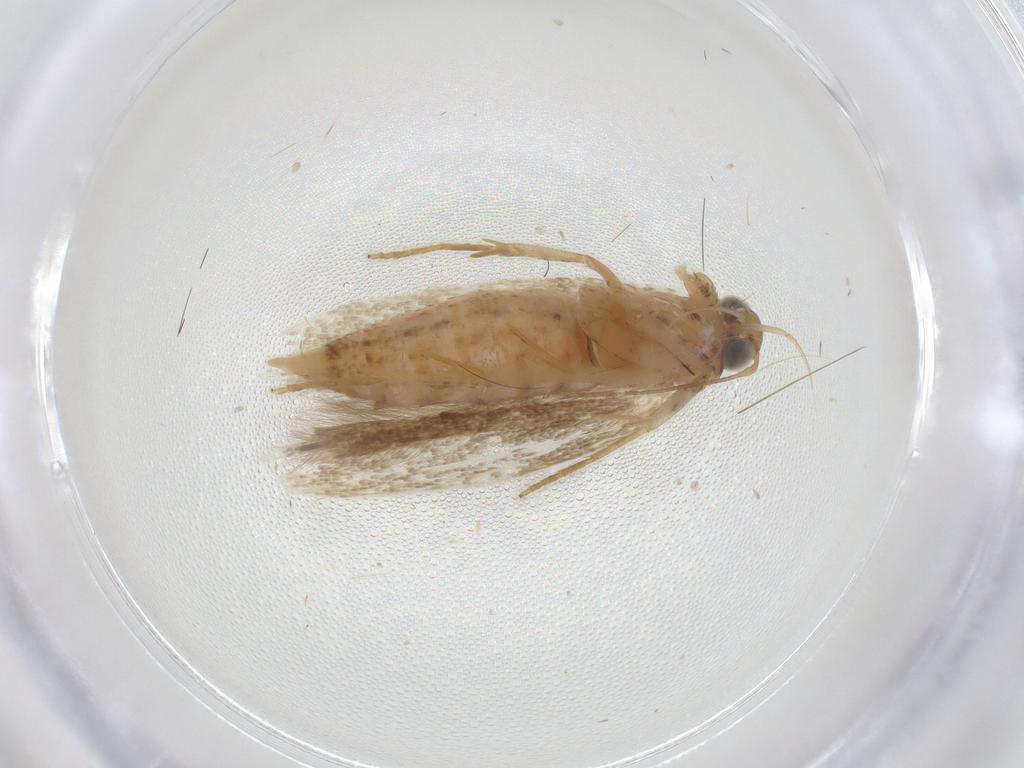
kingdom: Animalia
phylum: Arthropoda
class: Insecta
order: Lepidoptera
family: Gelechiidae
